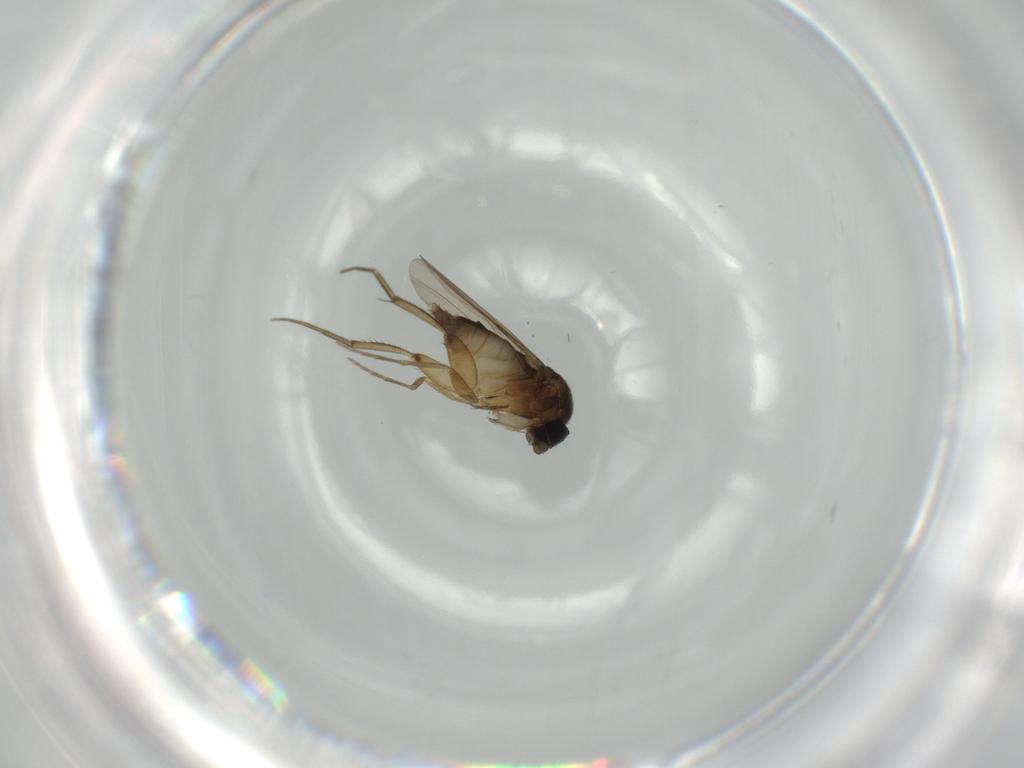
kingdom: Animalia
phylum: Arthropoda
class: Insecta
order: Diptera
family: Phoridae
